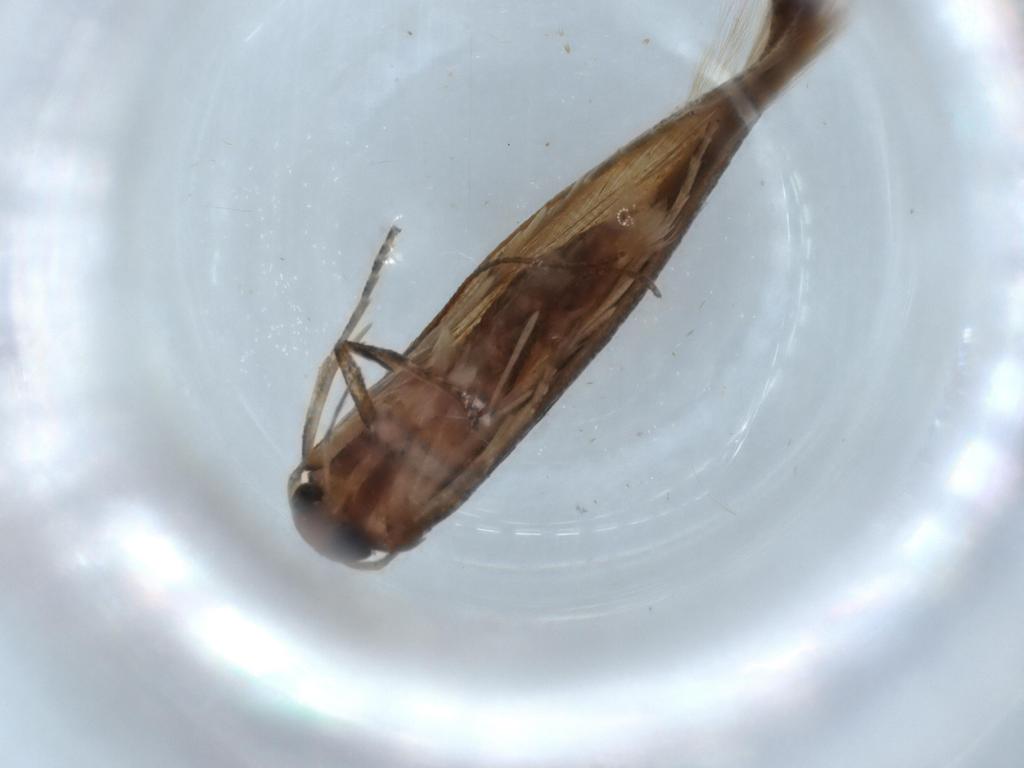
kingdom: Animalia
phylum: Arthropoda
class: Insecta
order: Lepidoptera
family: Stathmopodidae
